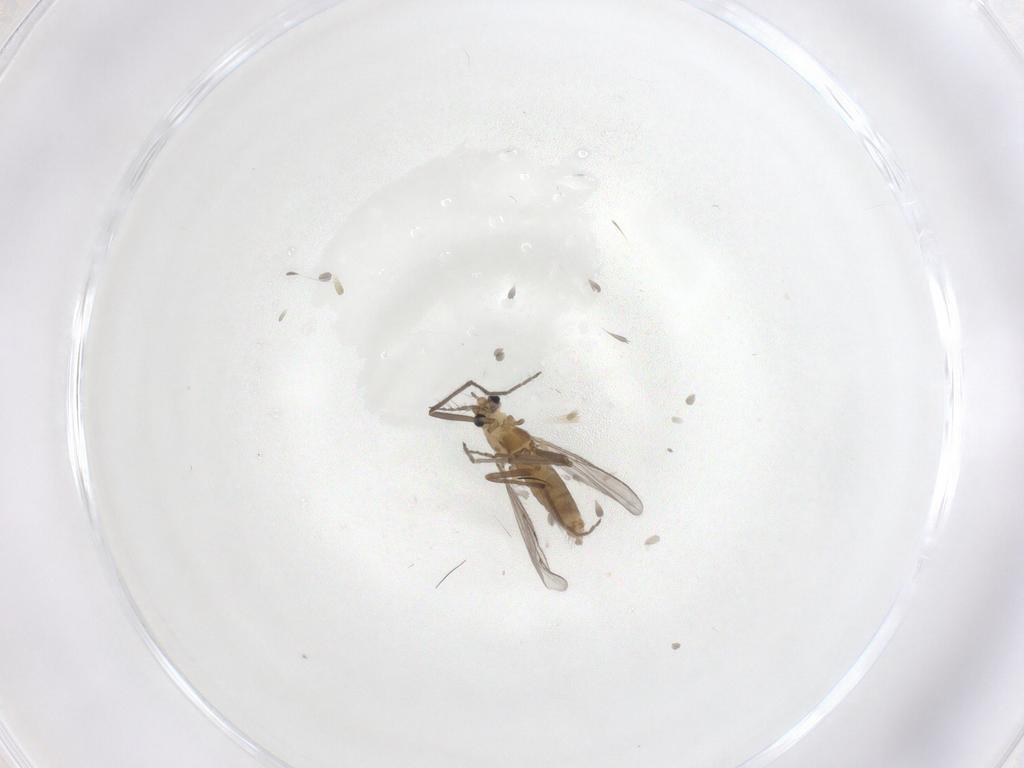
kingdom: Animalia
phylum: Arthropoda
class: Insecta
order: Diptera
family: Chironomidae
